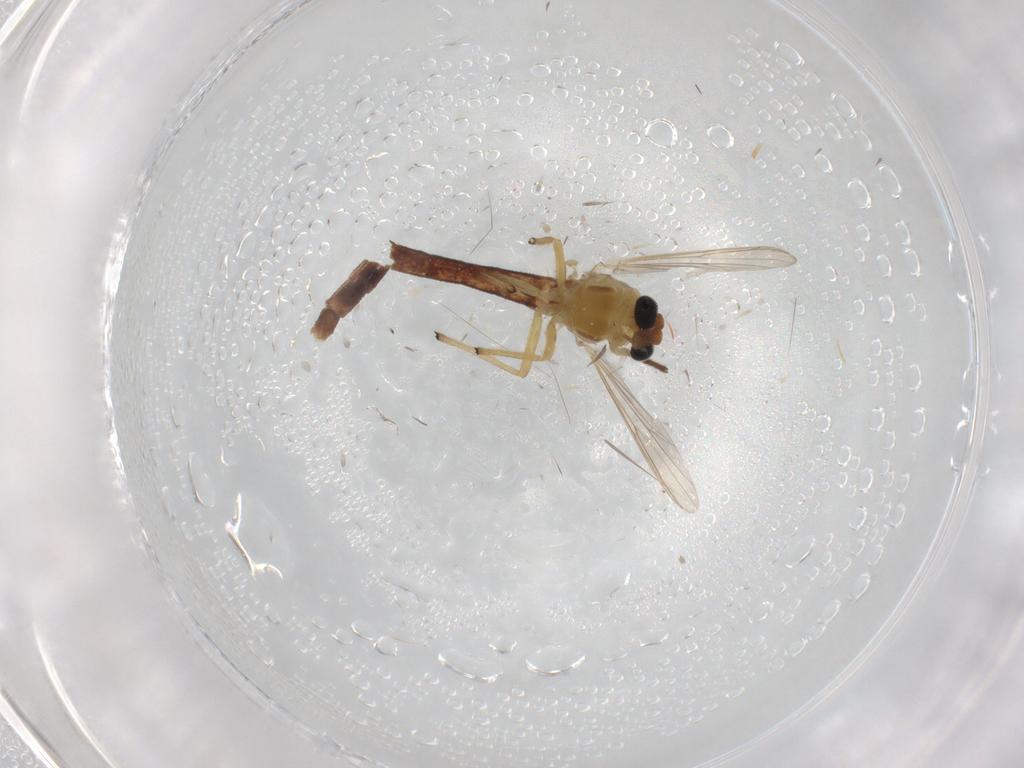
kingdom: Animalia
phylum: Arthropoda
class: Insecta
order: Diptera
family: Chironomidae
